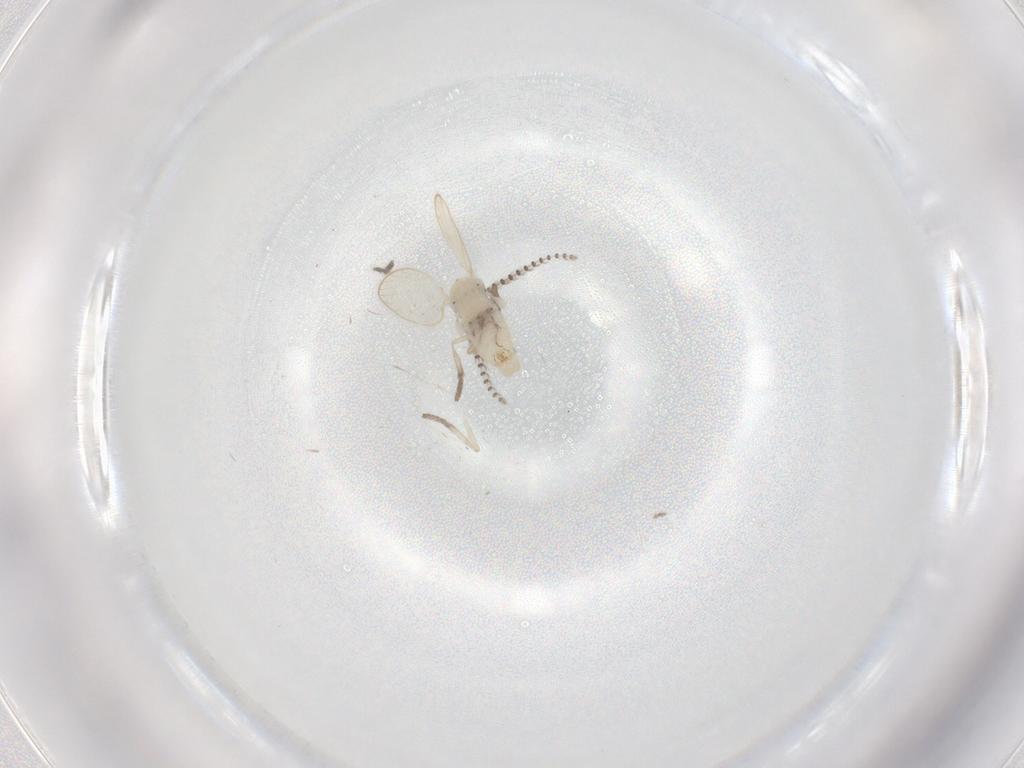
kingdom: Animalia
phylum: Arthropoda
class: Insecta
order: Diptera
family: Psychodidae
